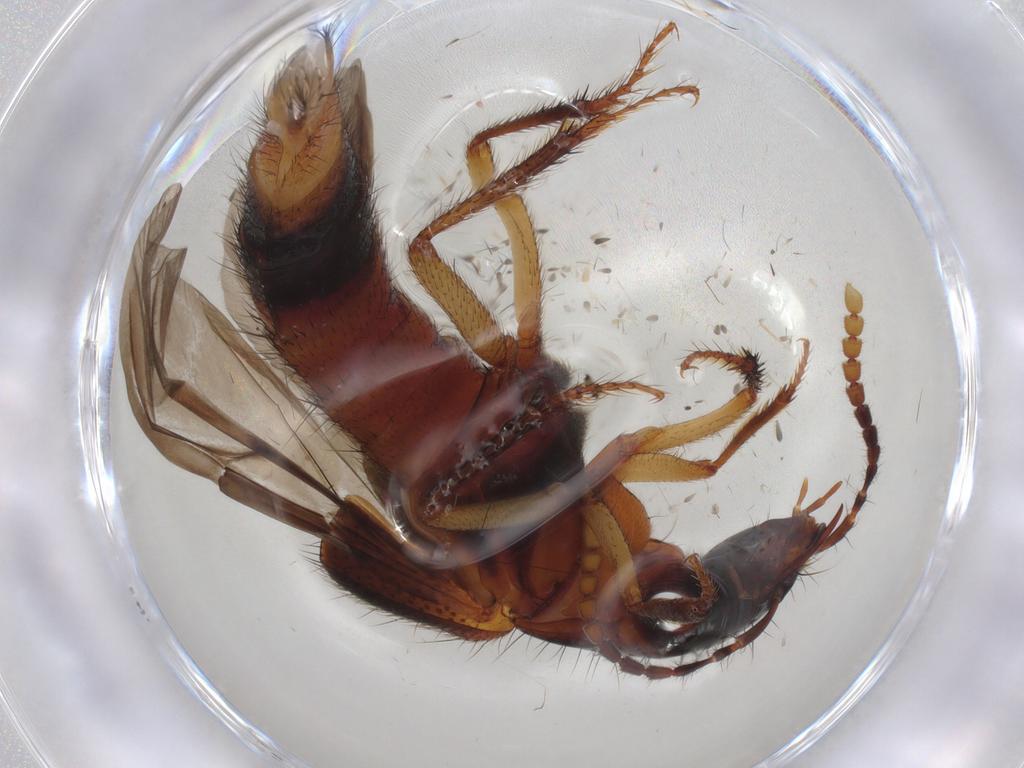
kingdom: Animalia
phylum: Arthropoda
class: Insecta
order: Coleoptera
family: Staphylinidae
